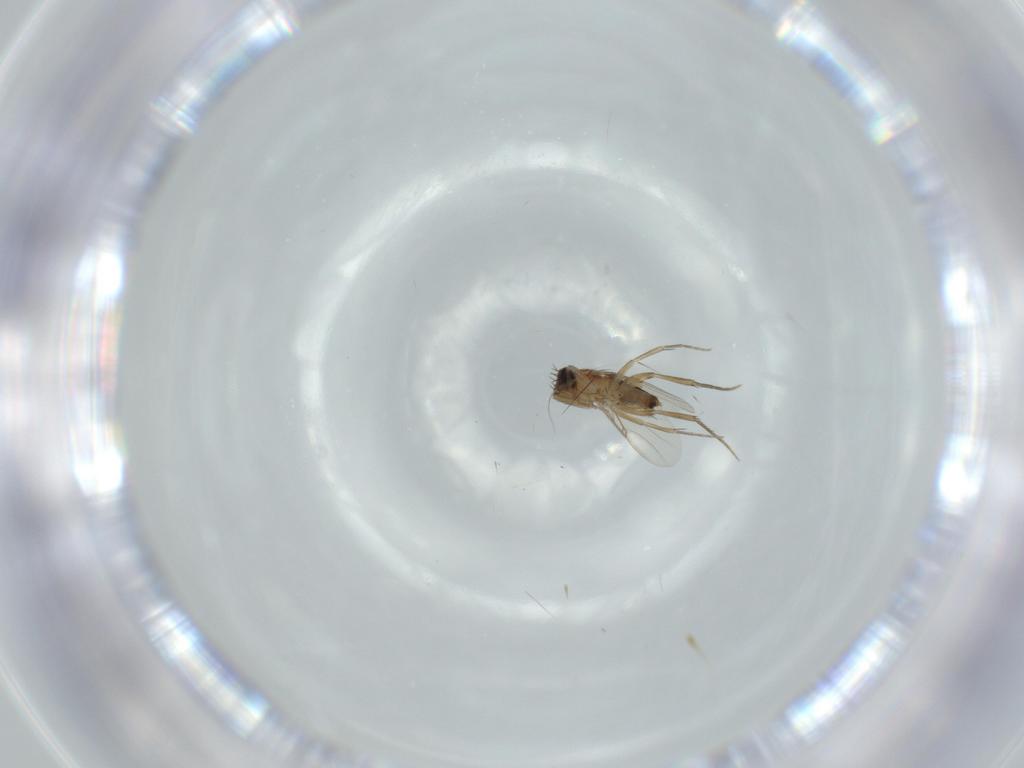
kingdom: Animalia
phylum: Arthropoda
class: Insecta
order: Diptera
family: Phoridae
